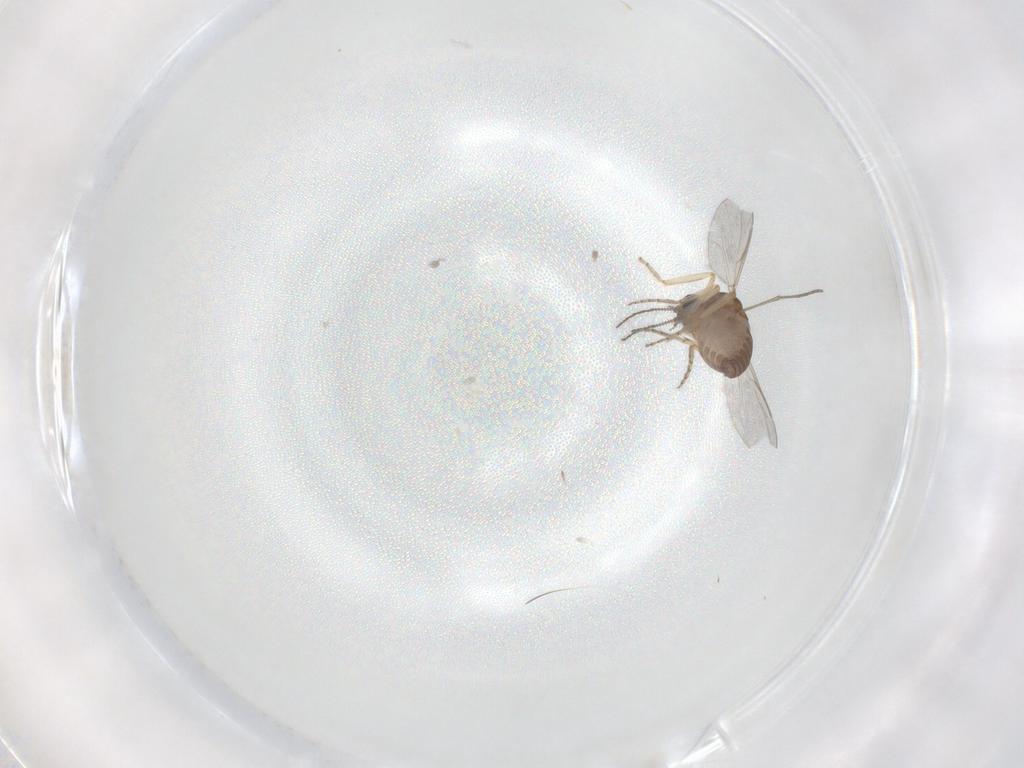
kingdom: Animalia
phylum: Arthropoda
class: Insecta
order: Diptera
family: Ceratopogonidae
